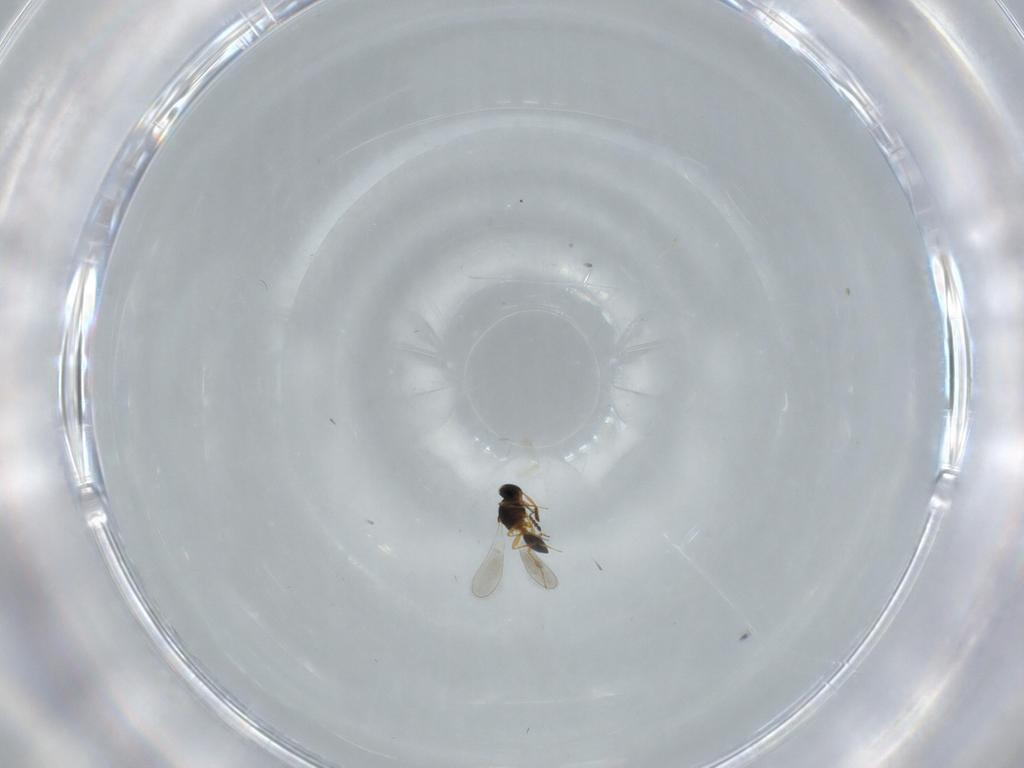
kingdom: Animalia
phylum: Arthropoda
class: Insecta
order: Hymenoptera
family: Platygastridae
